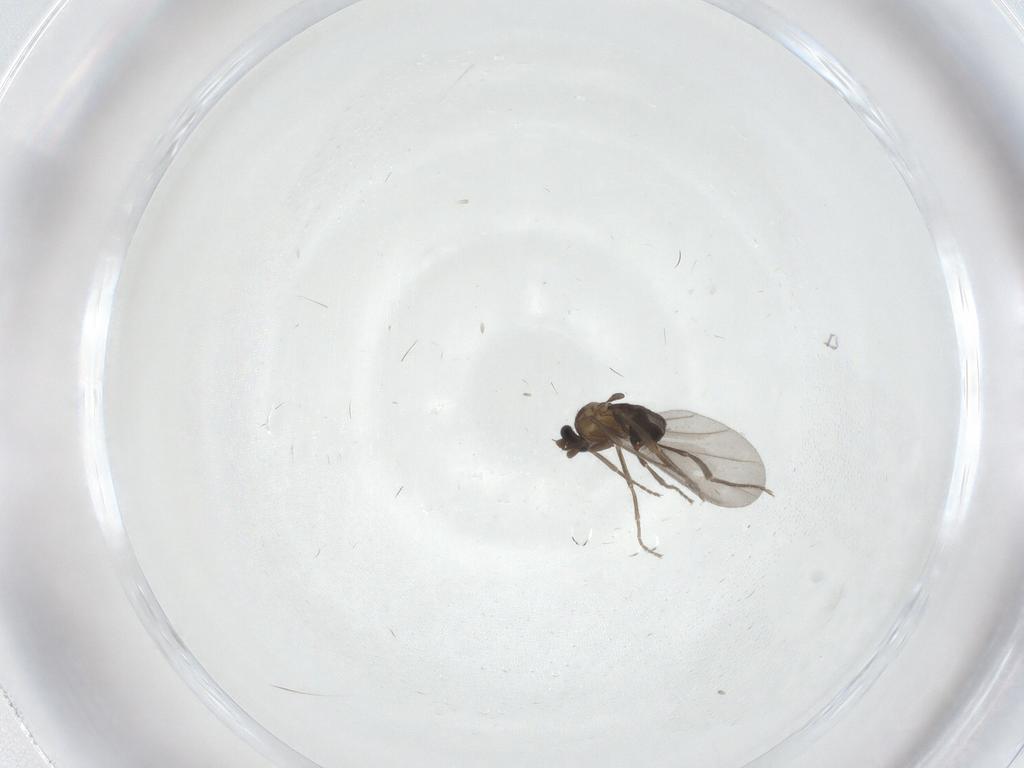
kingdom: Animalia
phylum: Arthropoda
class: Insecta
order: Diptera
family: Phoridae
